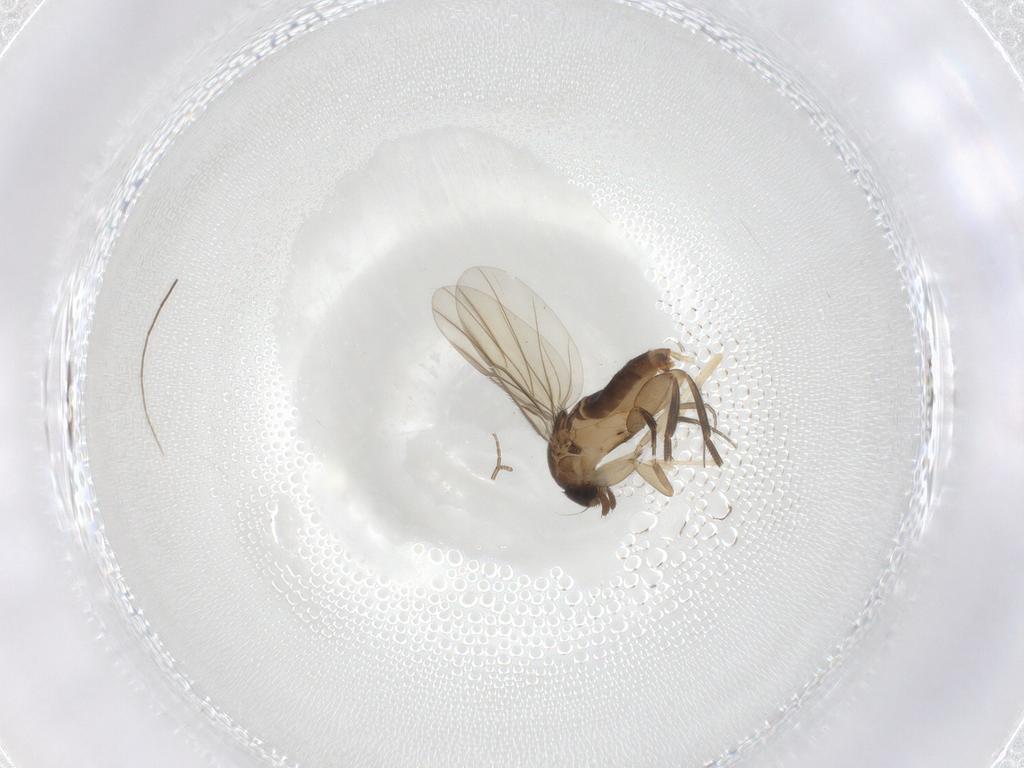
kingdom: Animalia
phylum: Arthropoda
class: Insecta
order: Diptera
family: Phoridae
